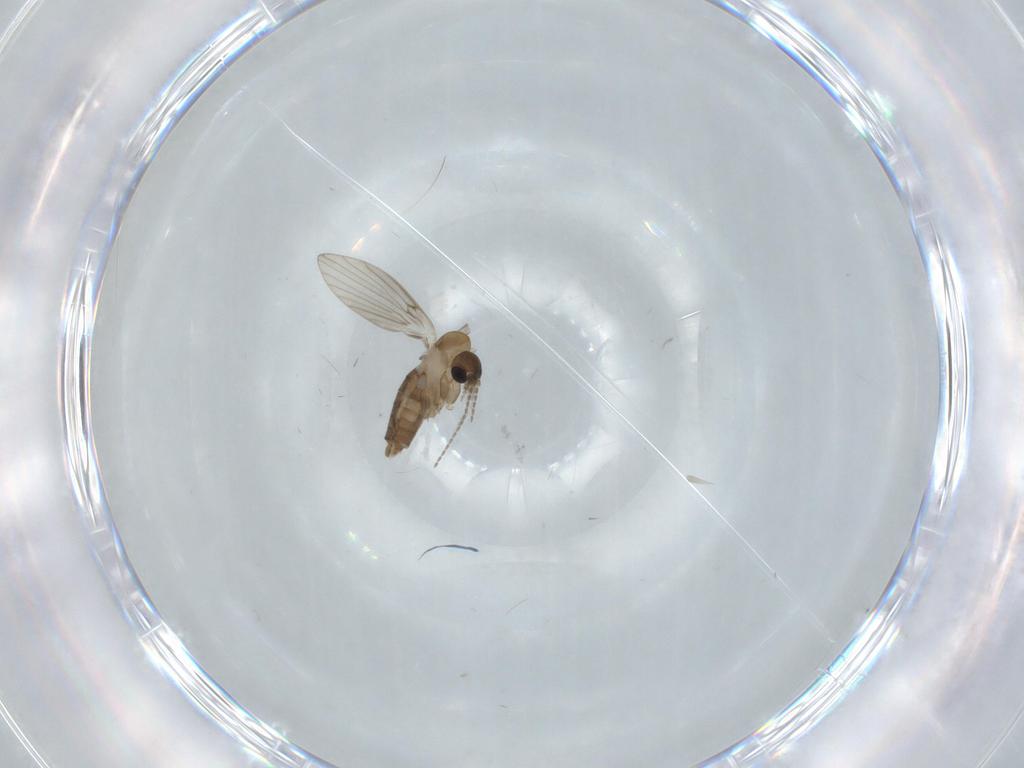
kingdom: Animalia
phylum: Arthropoda
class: Insecta
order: Diptera
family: Psychodidae
